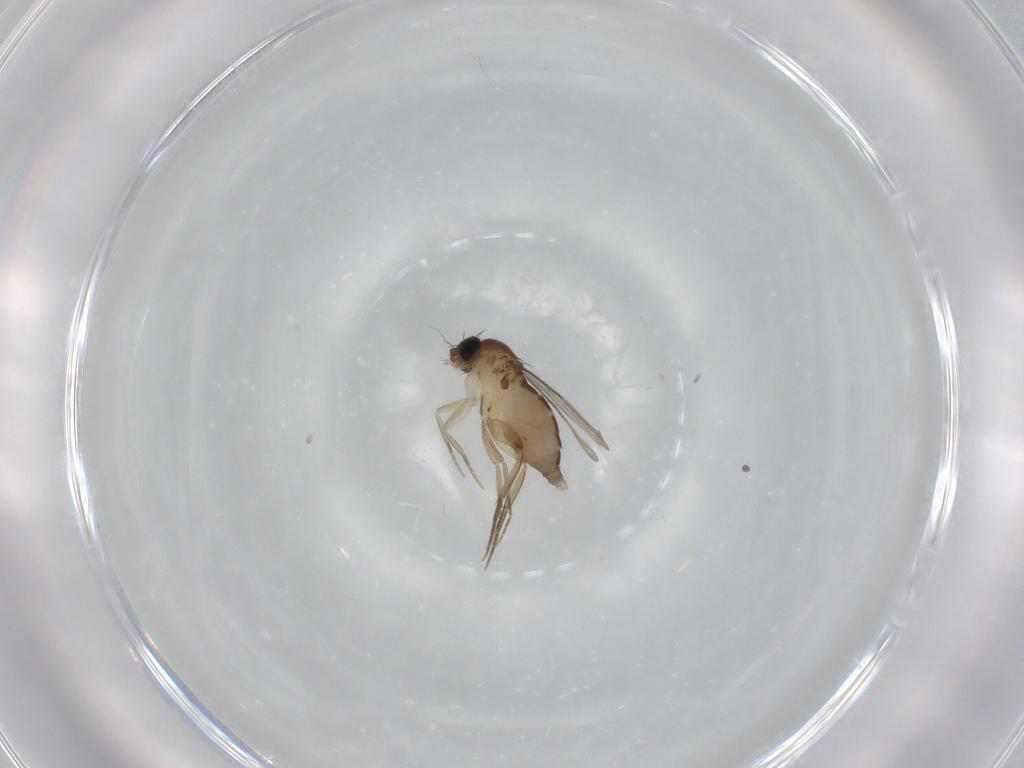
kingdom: Animalia
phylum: Arthropoda
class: Insecta
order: Diptera
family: Phoridae
